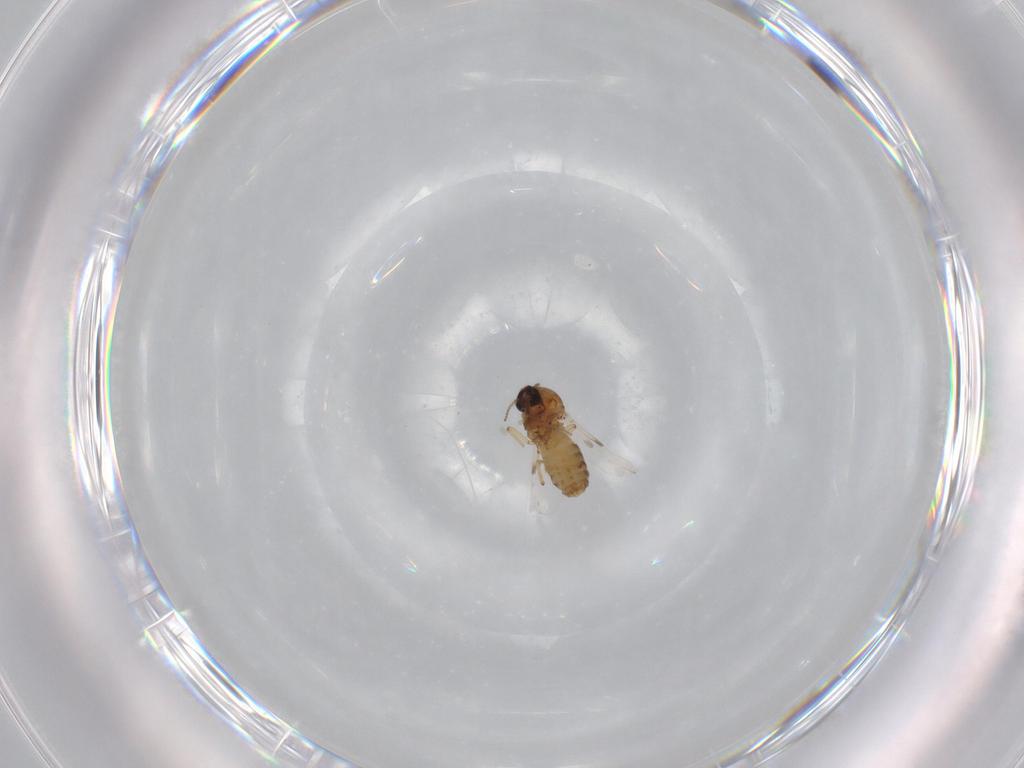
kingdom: Animalia
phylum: Arthropoda
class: Insecta
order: Diptera
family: Ceratopogonidae
